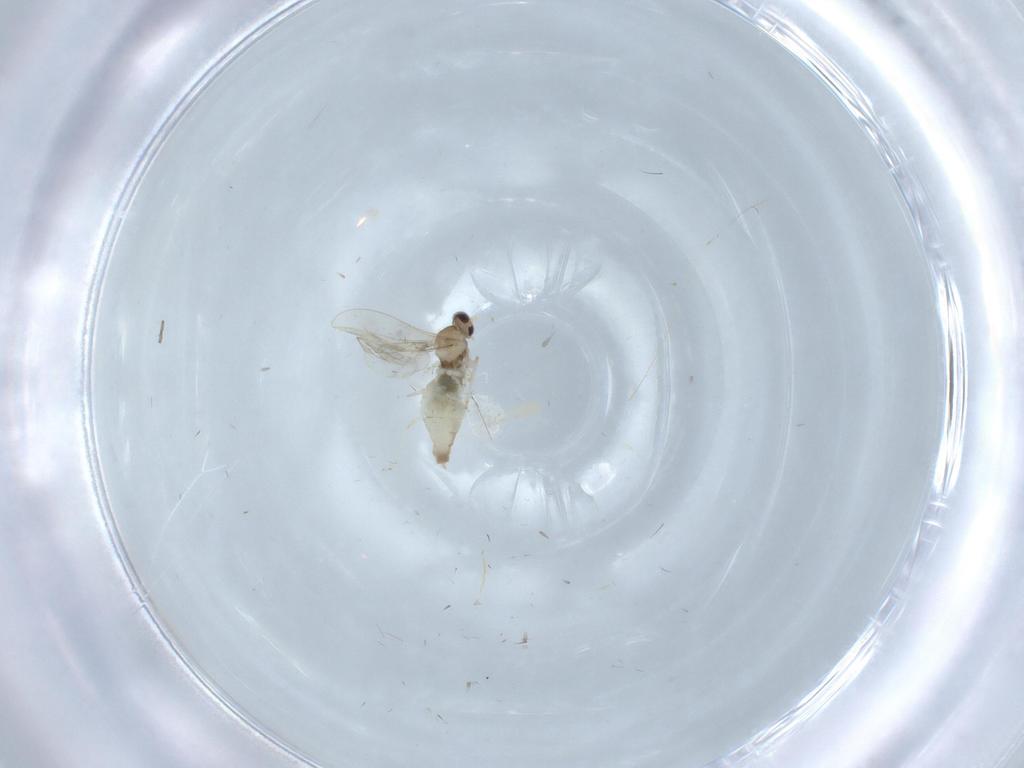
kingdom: Animalia
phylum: Arthropoda
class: Insecta
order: Diptera
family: Cecidomyiidae
